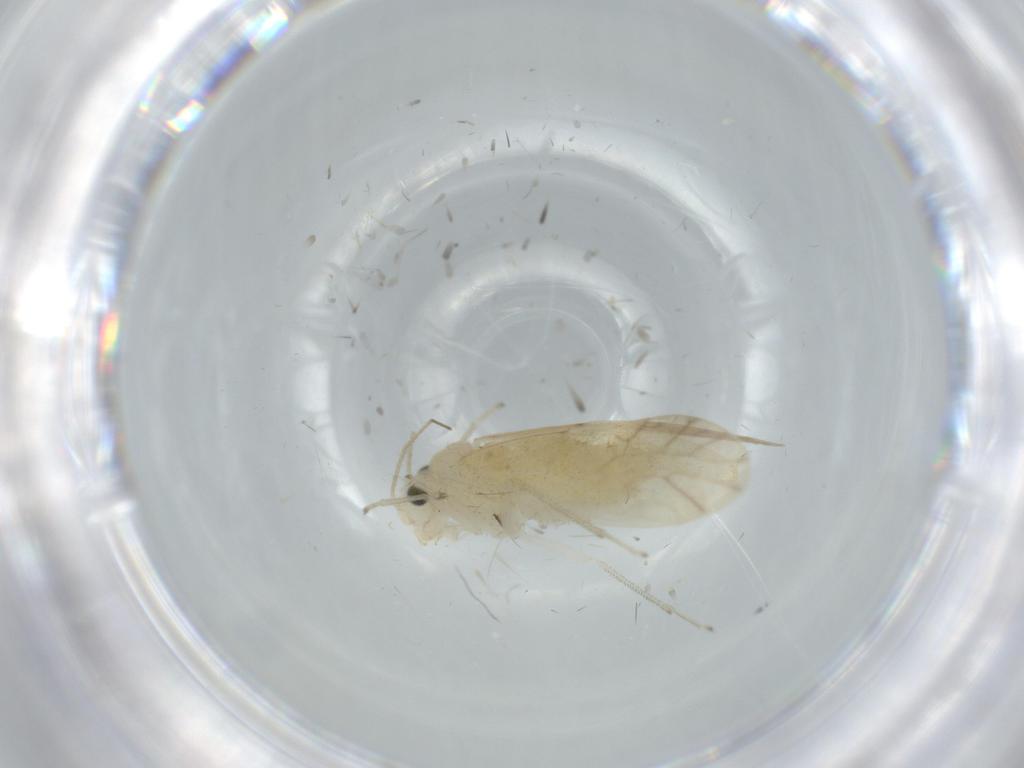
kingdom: Animalia
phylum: Arthropoda
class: Insecta
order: Psocodea
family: Caeciliusidae
